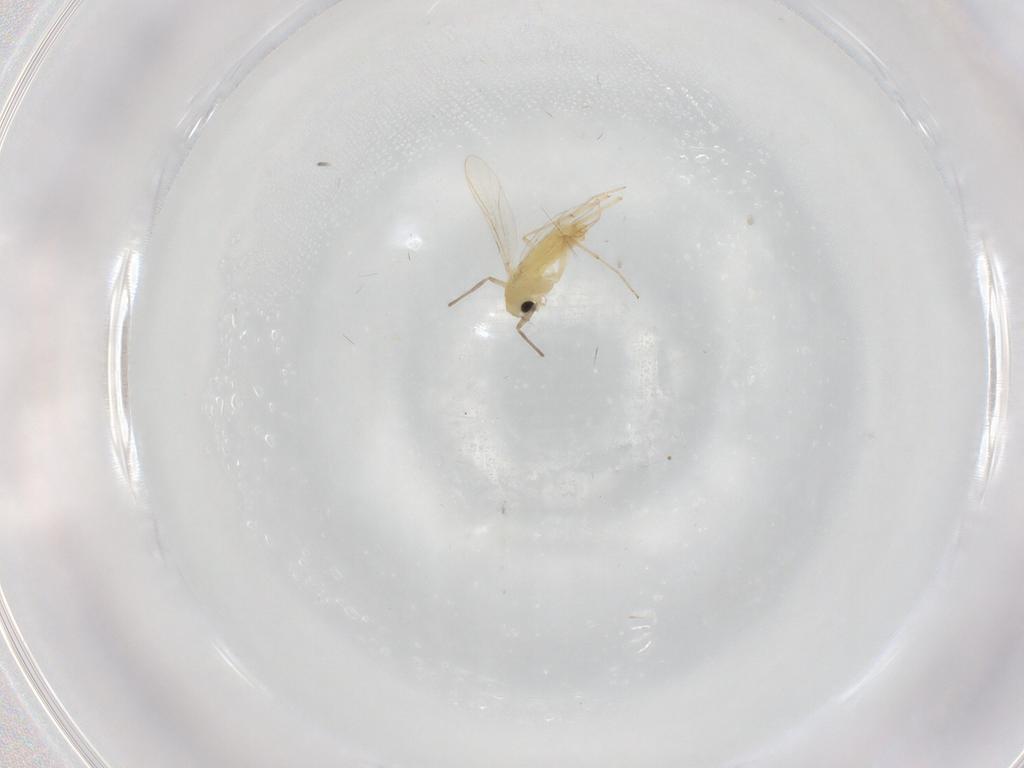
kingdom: Animalia
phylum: Arthropoda
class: Insecta
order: Diptera
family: Chironomidae
